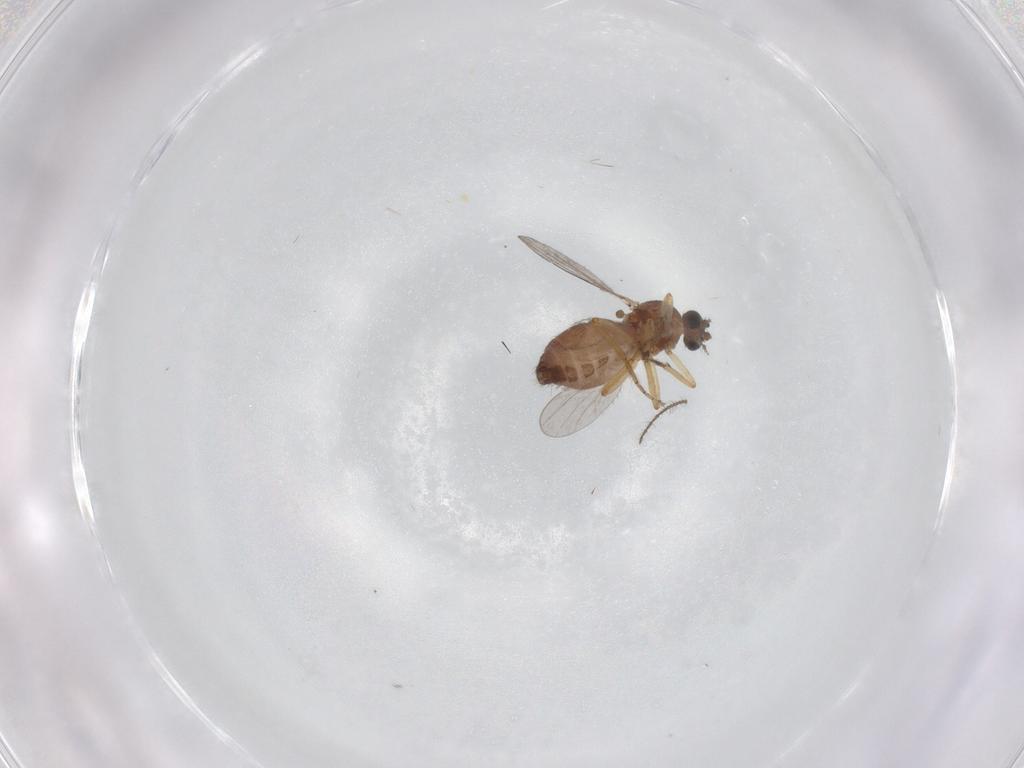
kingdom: Animalia
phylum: Arthropoda
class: Insecta
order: Diptera
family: Ceratopogonidae
